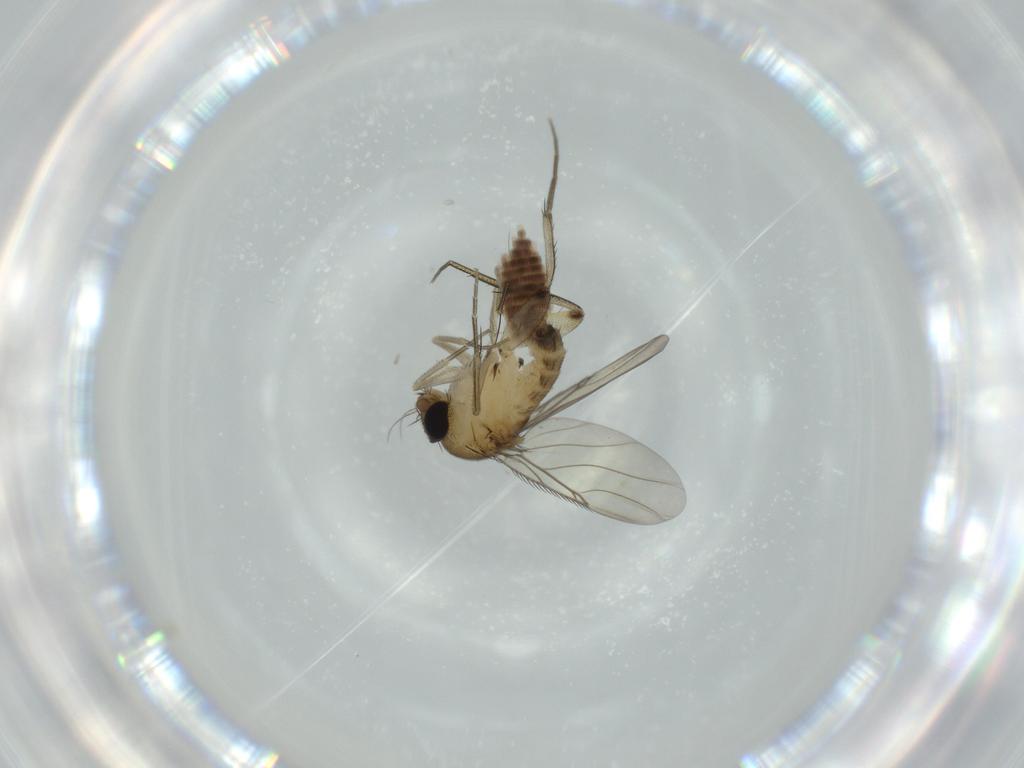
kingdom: Animalia
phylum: Arthropoda
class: Insecta
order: Diptera
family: Phoridae
